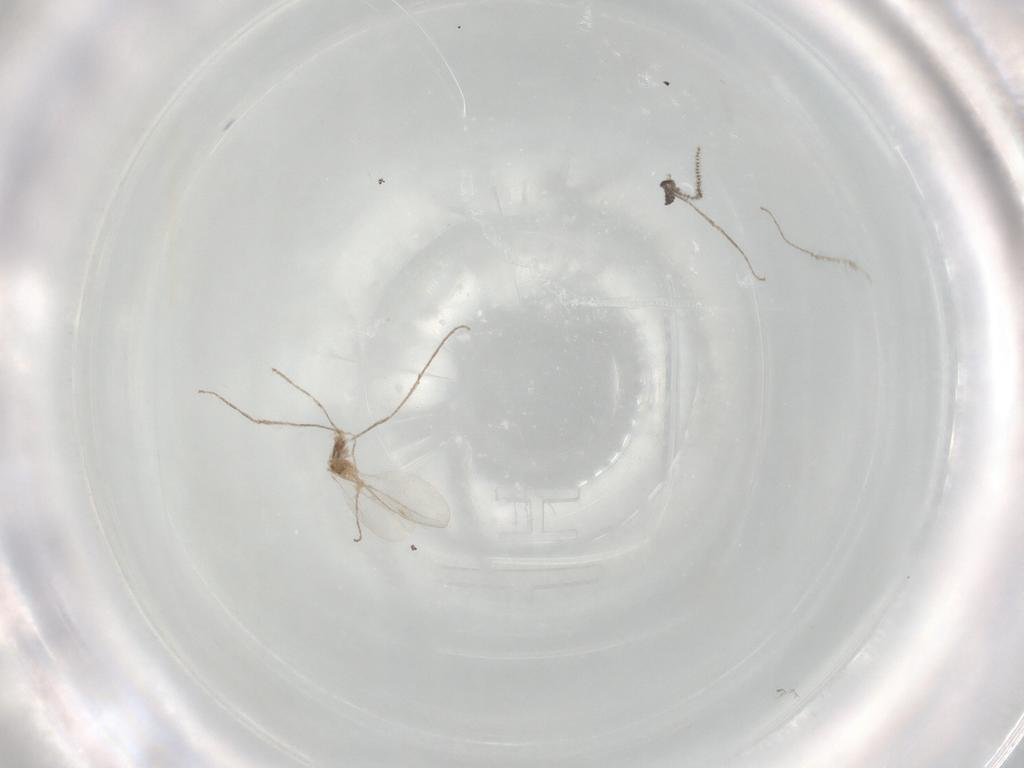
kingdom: Animalia
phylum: Arthropoda
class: Insecta
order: Diptera
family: Cecidomyiidae
